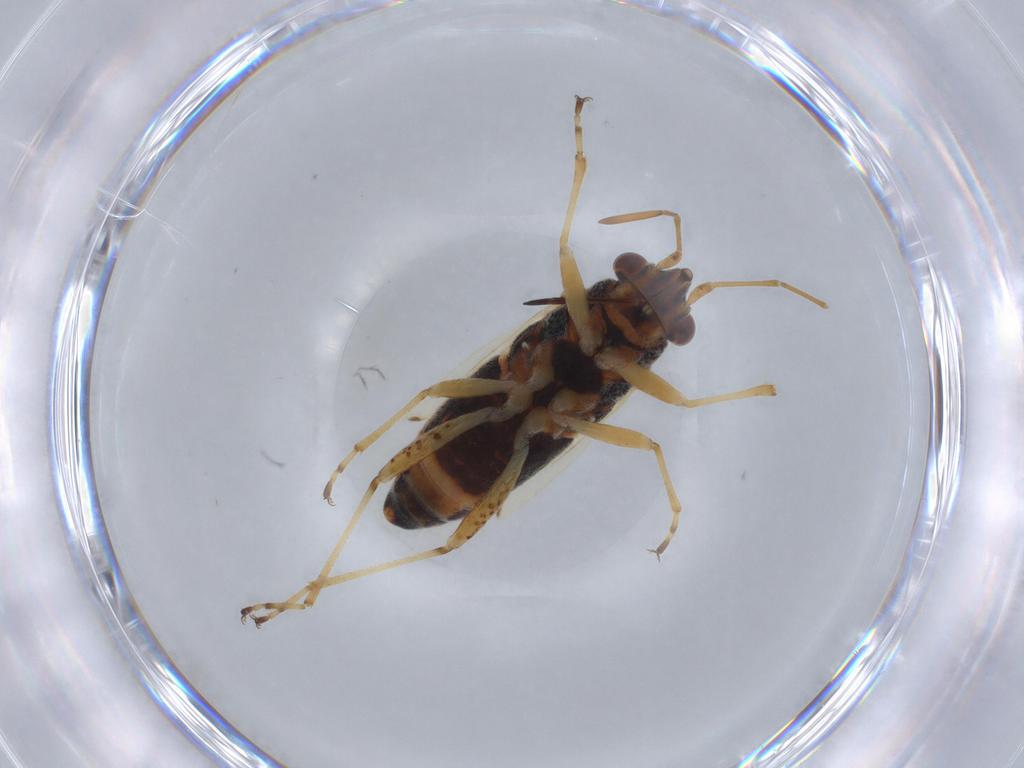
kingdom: Animalia
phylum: Arthropoda
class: Insecta
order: Hemiptera
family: Lygaeidae
